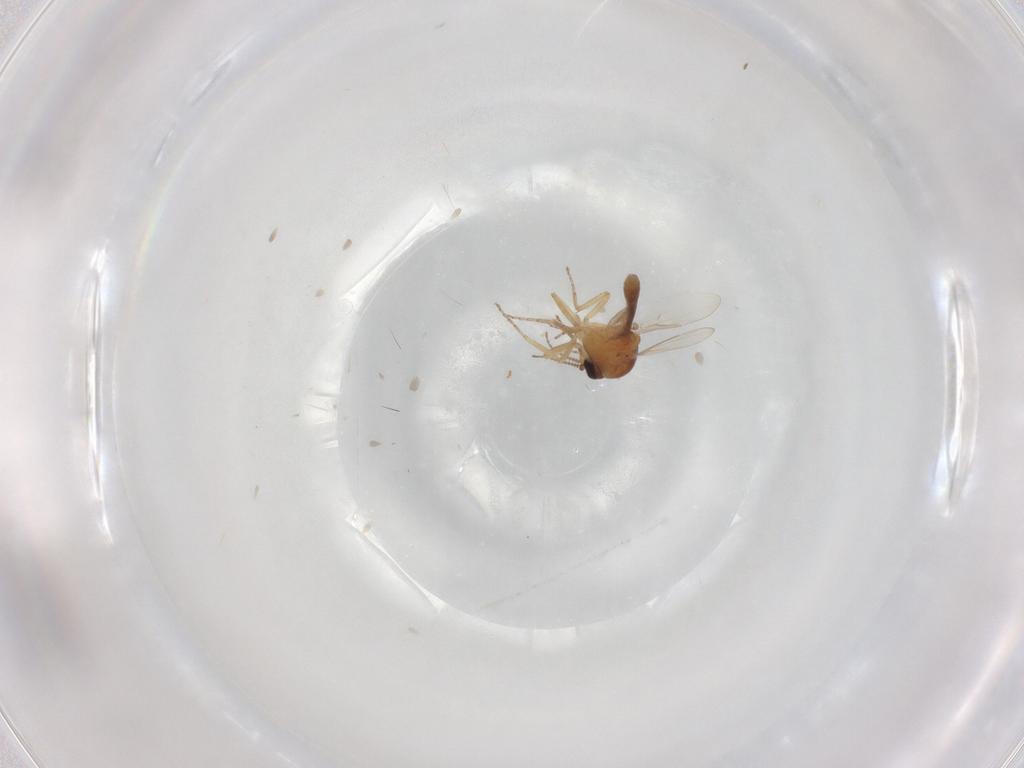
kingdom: Animalia
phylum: Arthropoda
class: Insecta
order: Diptera
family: Ceratopogonidae
